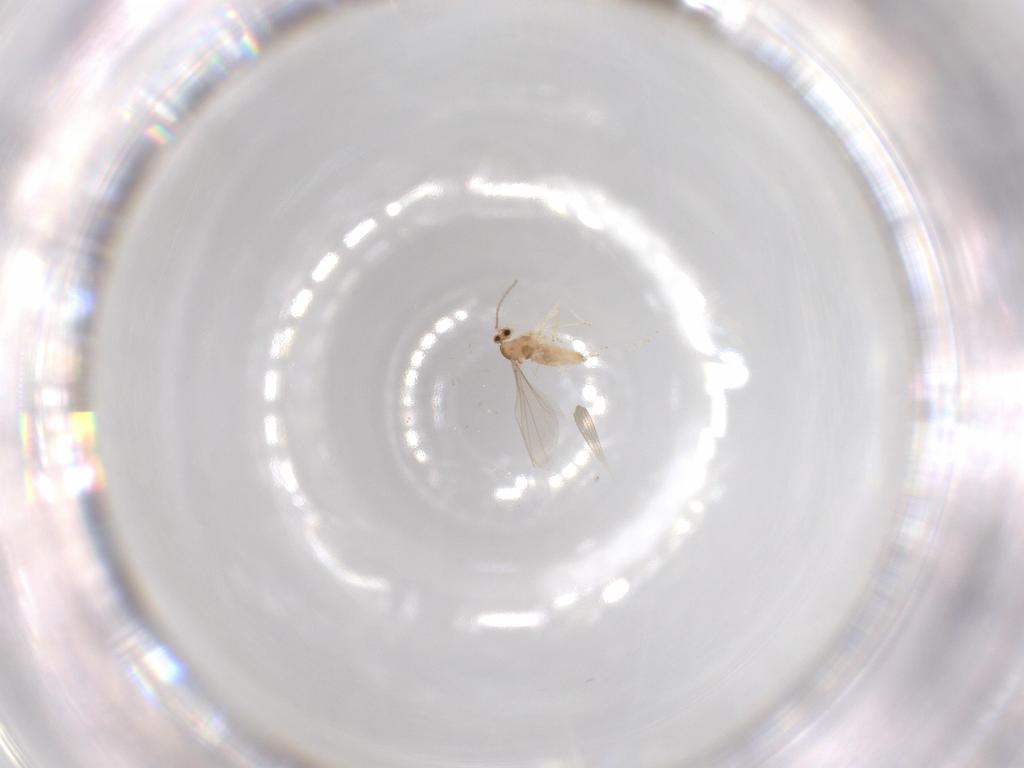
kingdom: Animalia
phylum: Arthropoda
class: Insecta
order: Diptera
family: Cecidomyiidae
